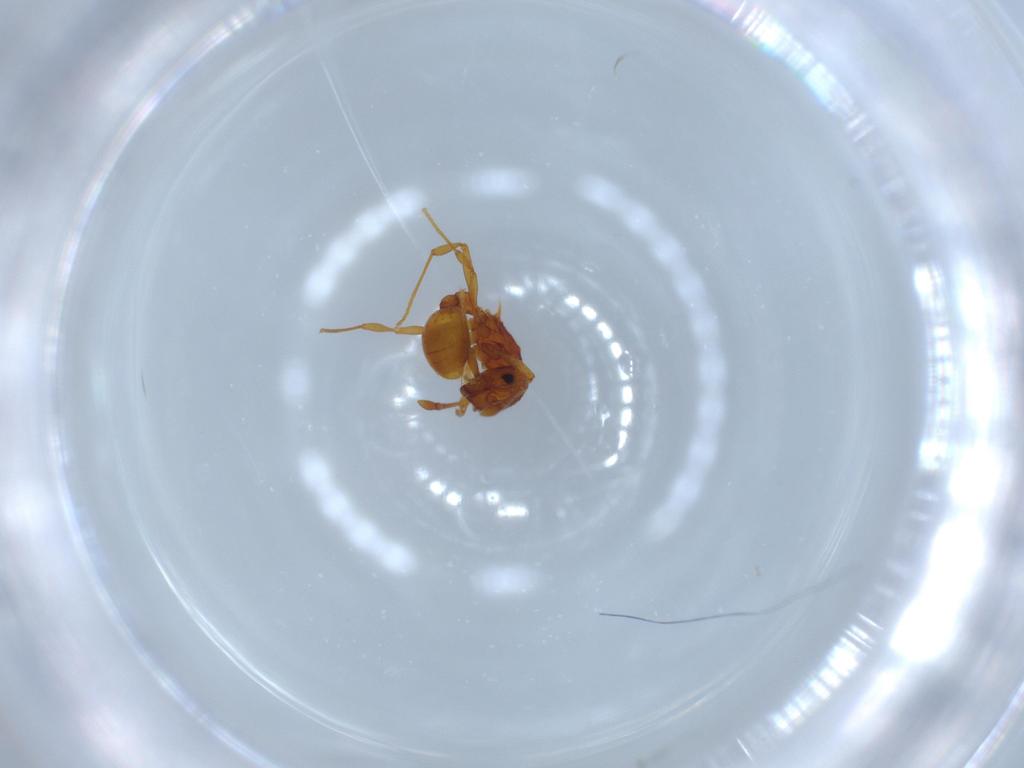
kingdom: Animalia
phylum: Arthropoda
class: Insecta
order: Hymenoptera
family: Formicidae
